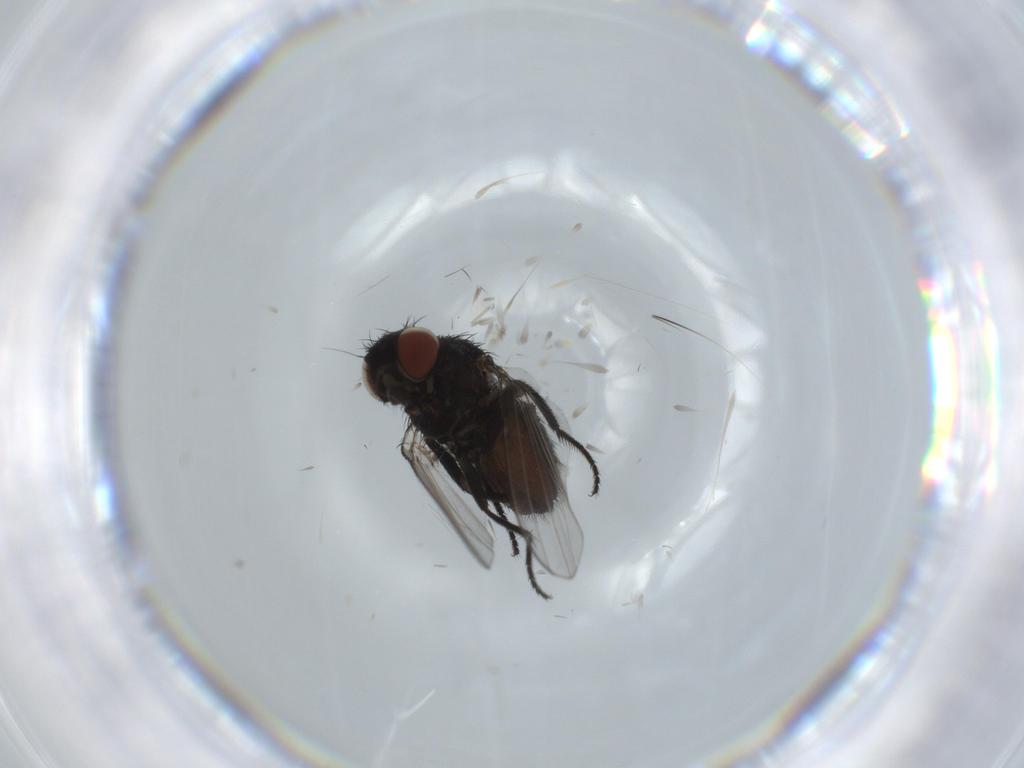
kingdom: Animalia
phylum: Arthropoda
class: Insecta
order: Diptera
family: Milichiidae
